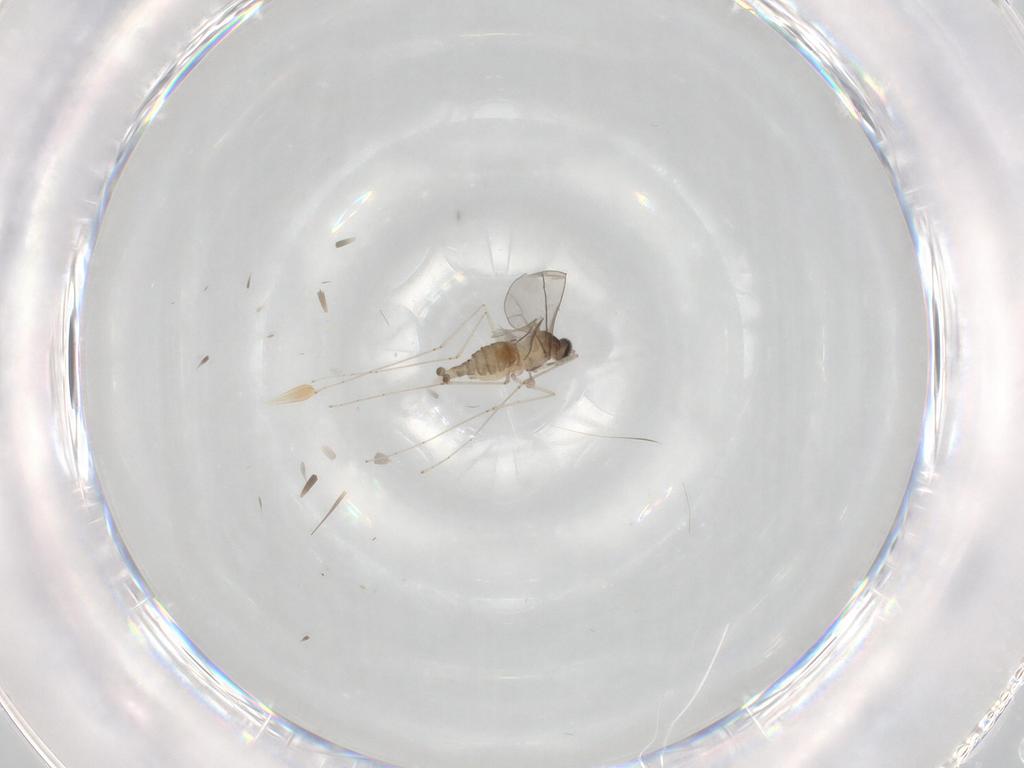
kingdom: Animalia
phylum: Arthropoda
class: Insecta
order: Diptera
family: Cecidomyiidae
